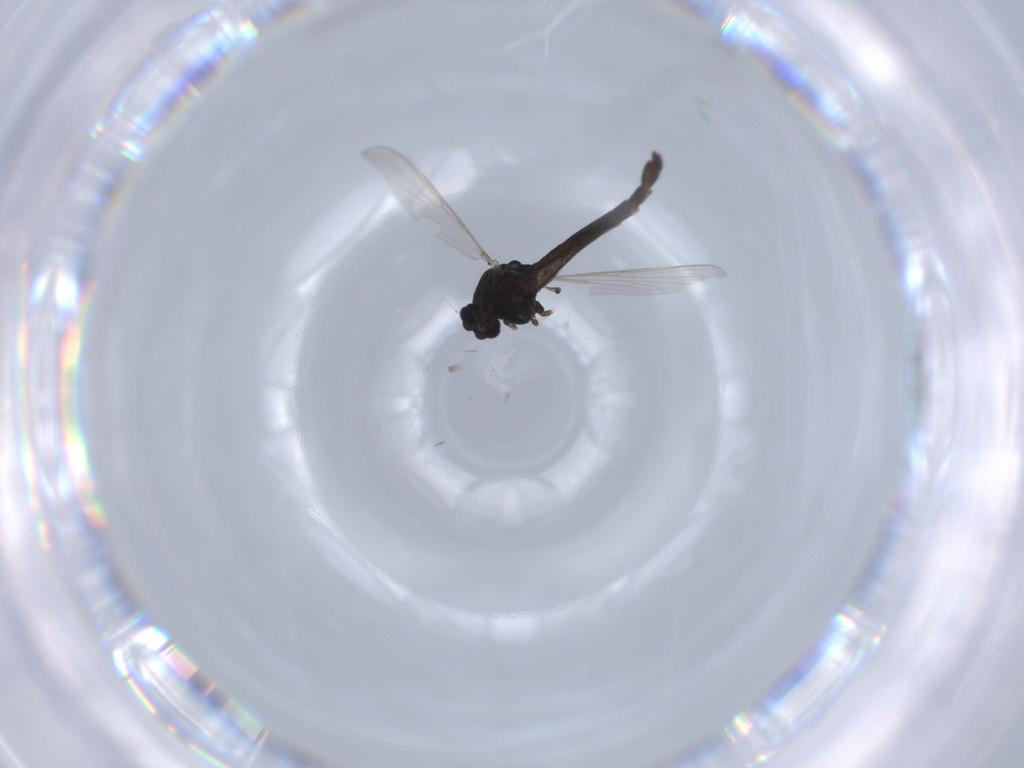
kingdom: Animalia
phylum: Arthropoda
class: Insecta
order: Diptera
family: Chironomidae
